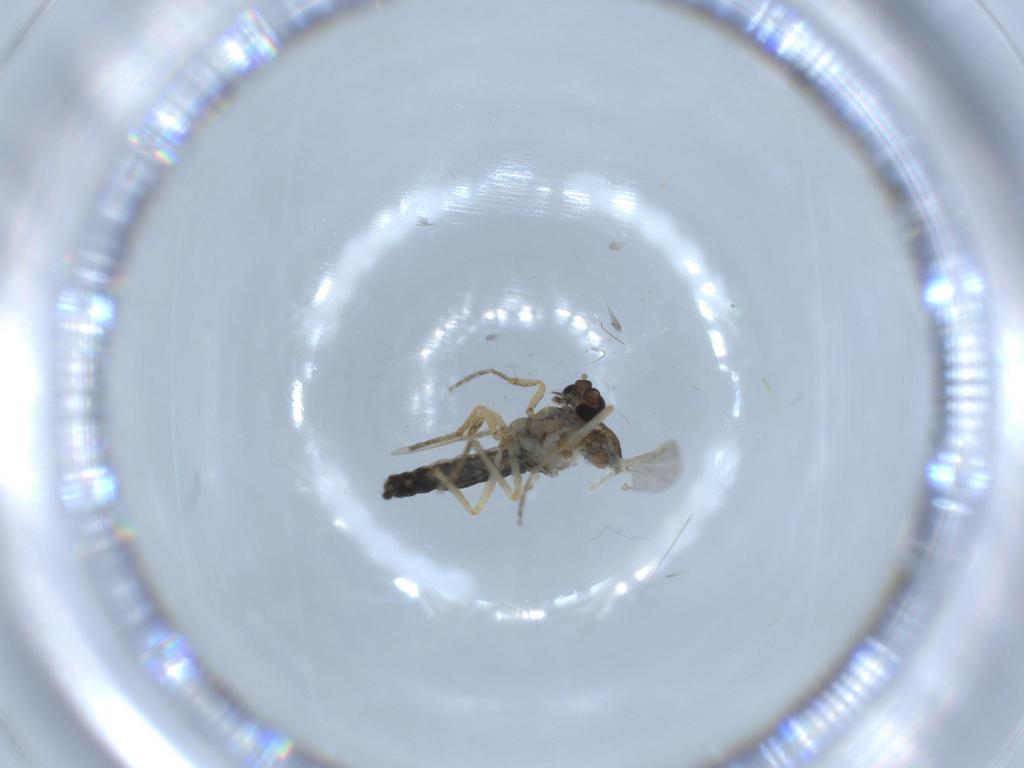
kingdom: Animalia
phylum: Arthropoda
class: Insecta
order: Diptera
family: Ceratopogonidae
